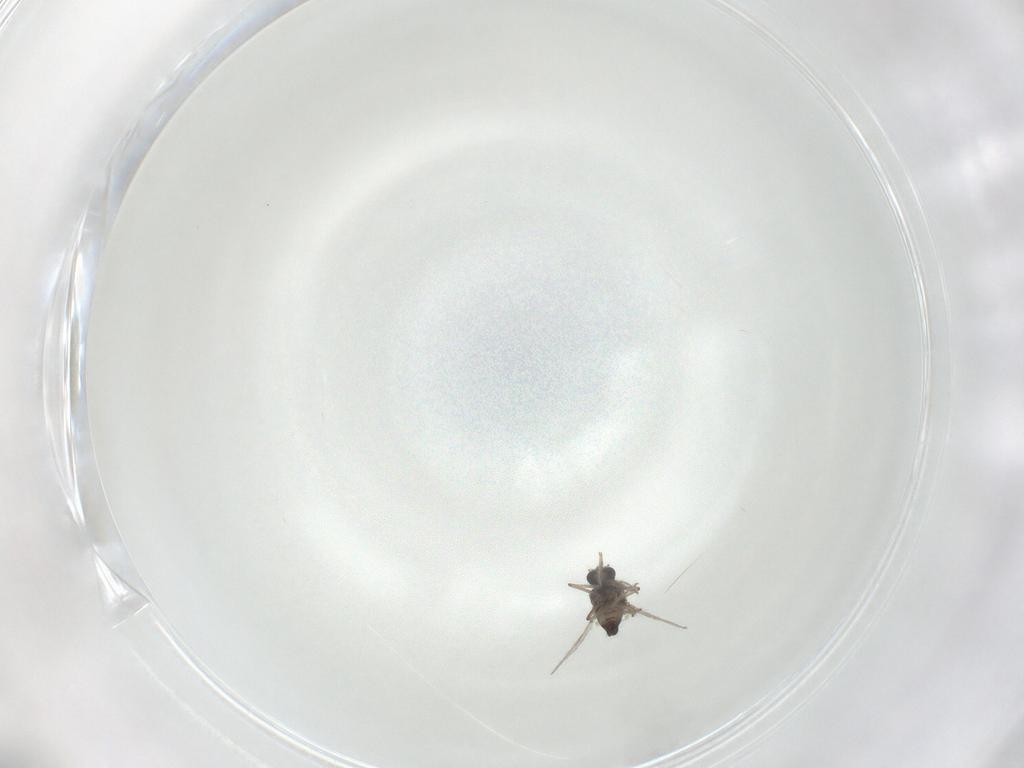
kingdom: Animalia
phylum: Arthropoda
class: Insecta
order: Diptera
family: Ceratopogonidae
